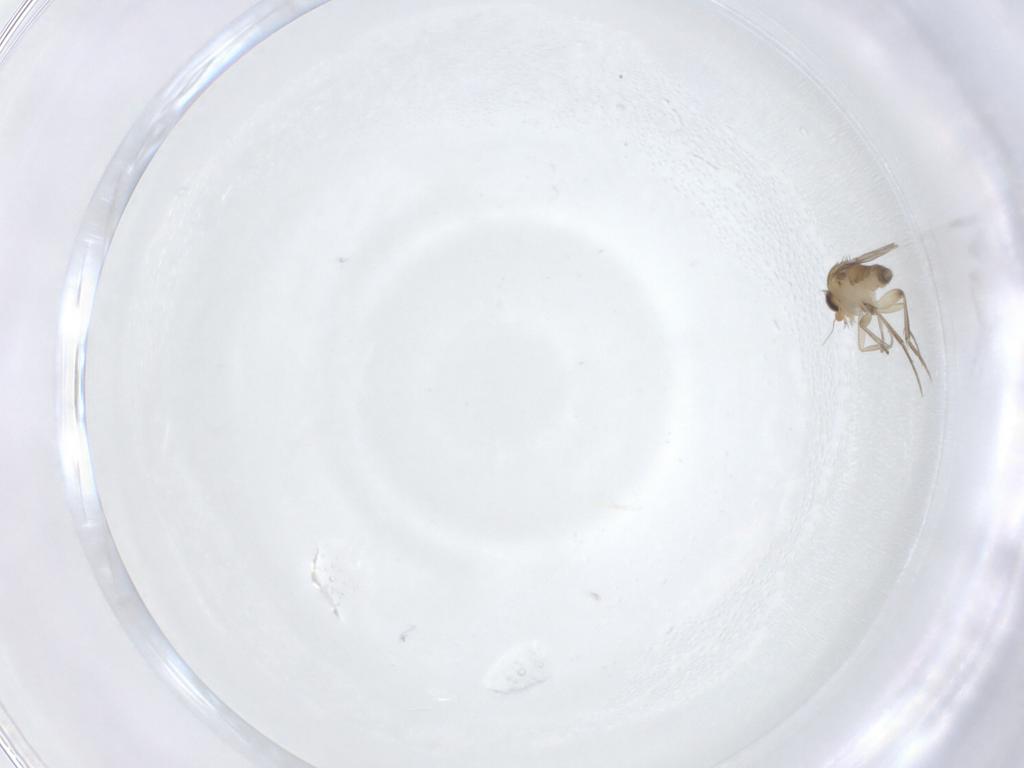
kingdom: Animalia
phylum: Arthropoda
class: Insecta
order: Diptera
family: Phoridae
